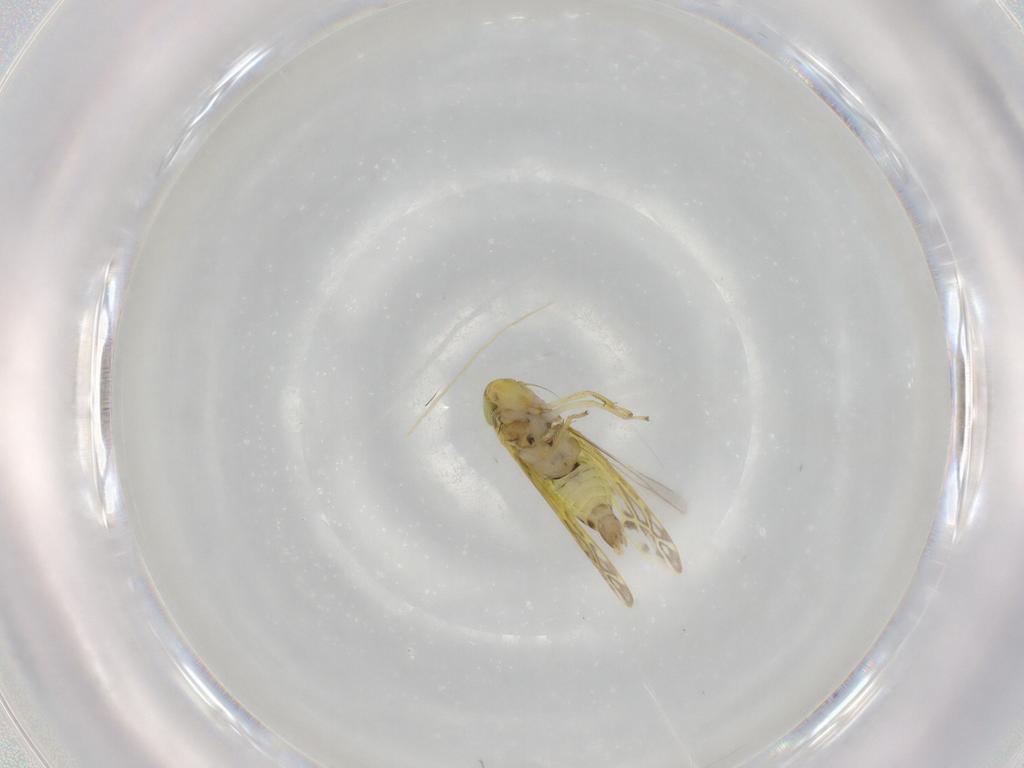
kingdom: Animalia
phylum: Arthropoda
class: Insecta
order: Hemiptera
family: Cicadellidae
